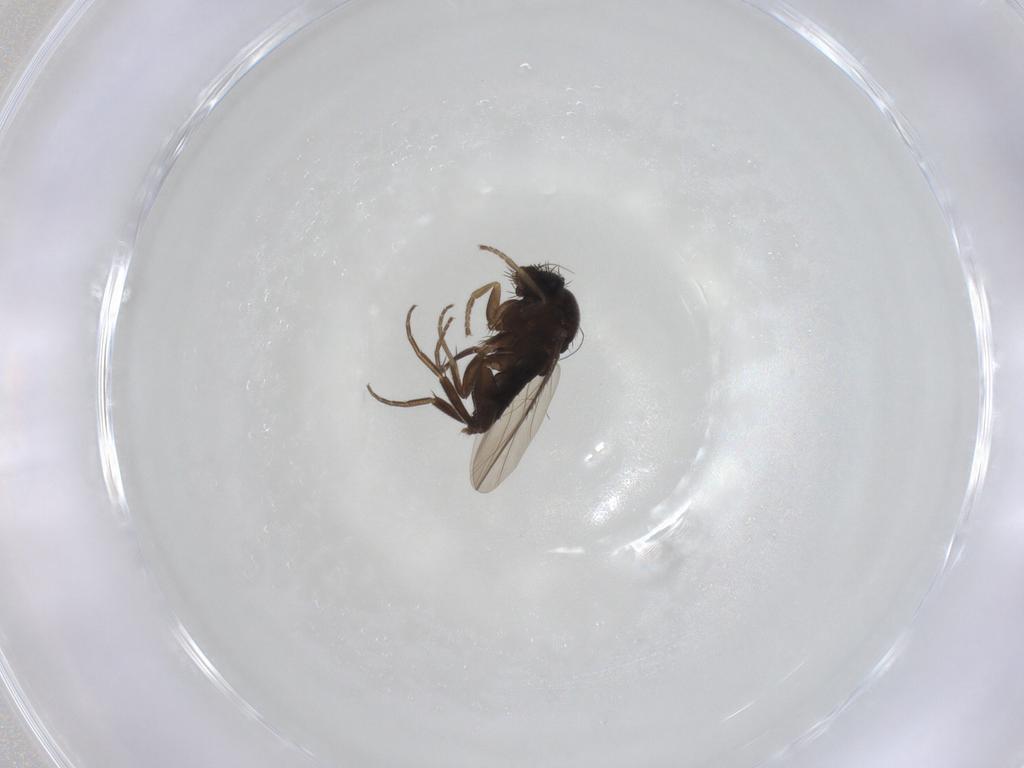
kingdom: Animalia
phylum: Arthropoda
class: Insecta
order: Diptera
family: Phoridae
